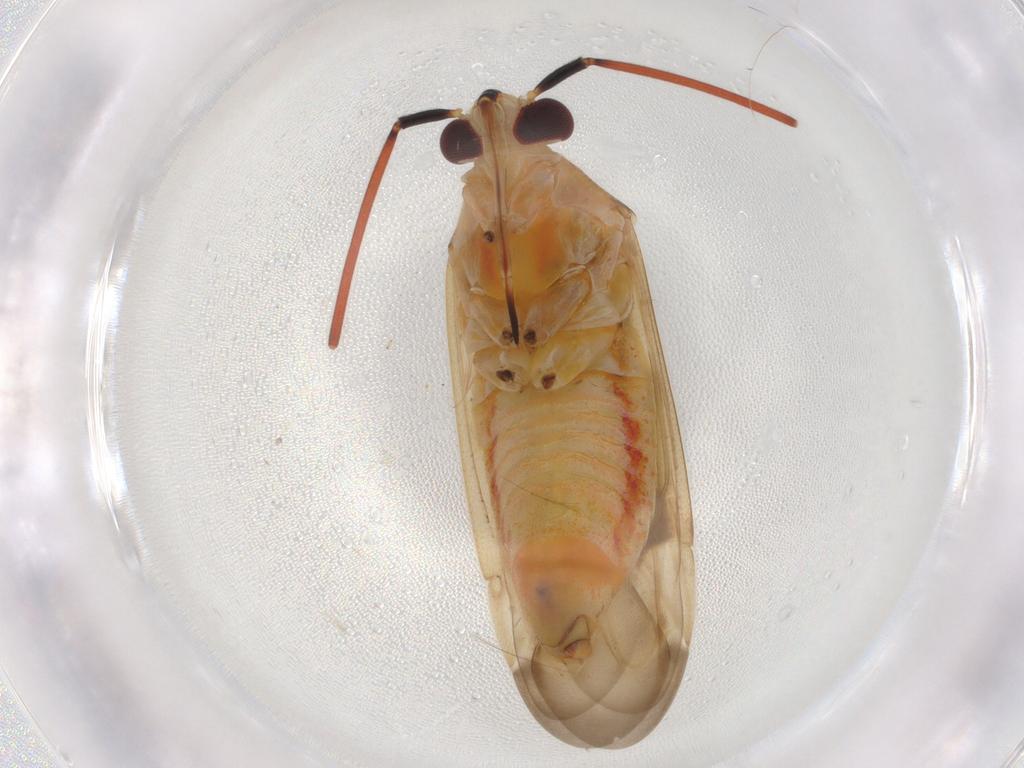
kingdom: Animalia
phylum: Arthropoda
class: Insecta
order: Hemiptera
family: Miridae
